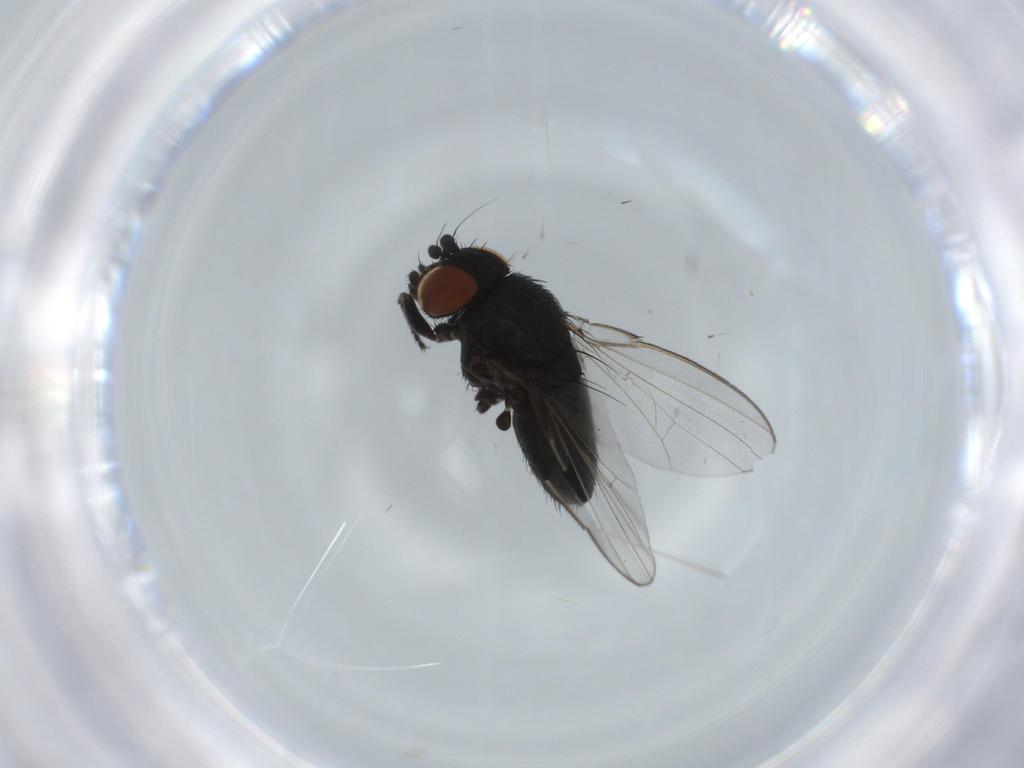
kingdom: Animalia
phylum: Arthropoda
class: Insecta
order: Diptera
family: Milichiidae
